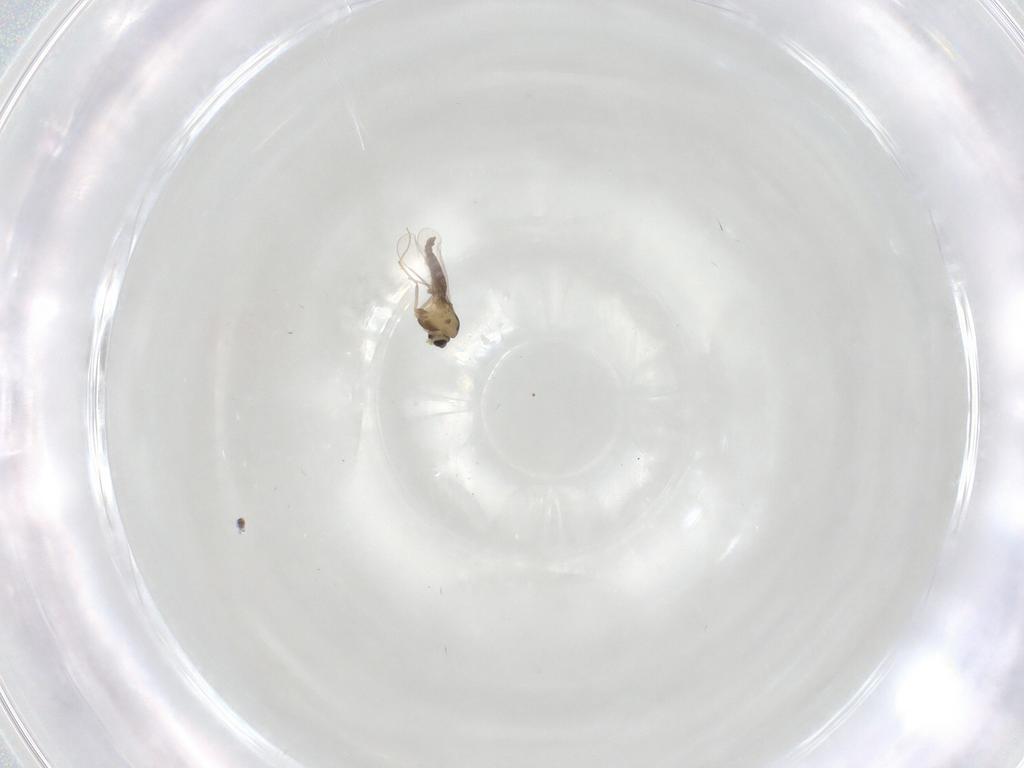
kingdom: Animalia
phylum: Arthropoda
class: Insecta
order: Diptera
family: Chironomidae
